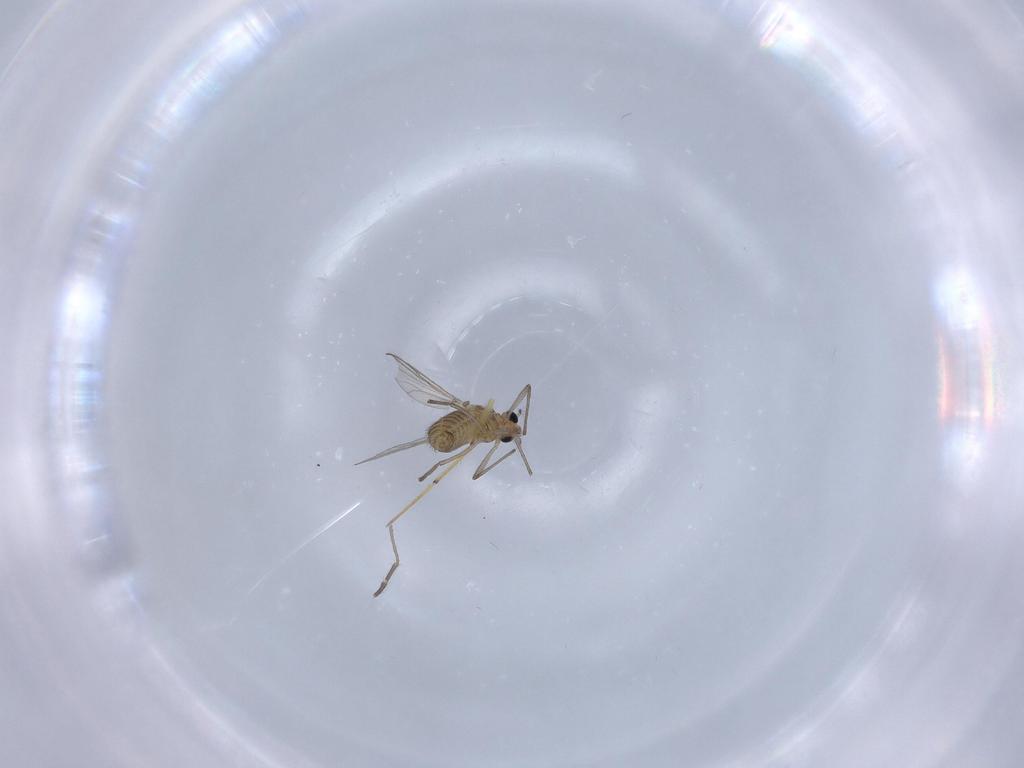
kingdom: Animalia
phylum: Arthropoda
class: Insecta
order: Diptera
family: Chironomidae
